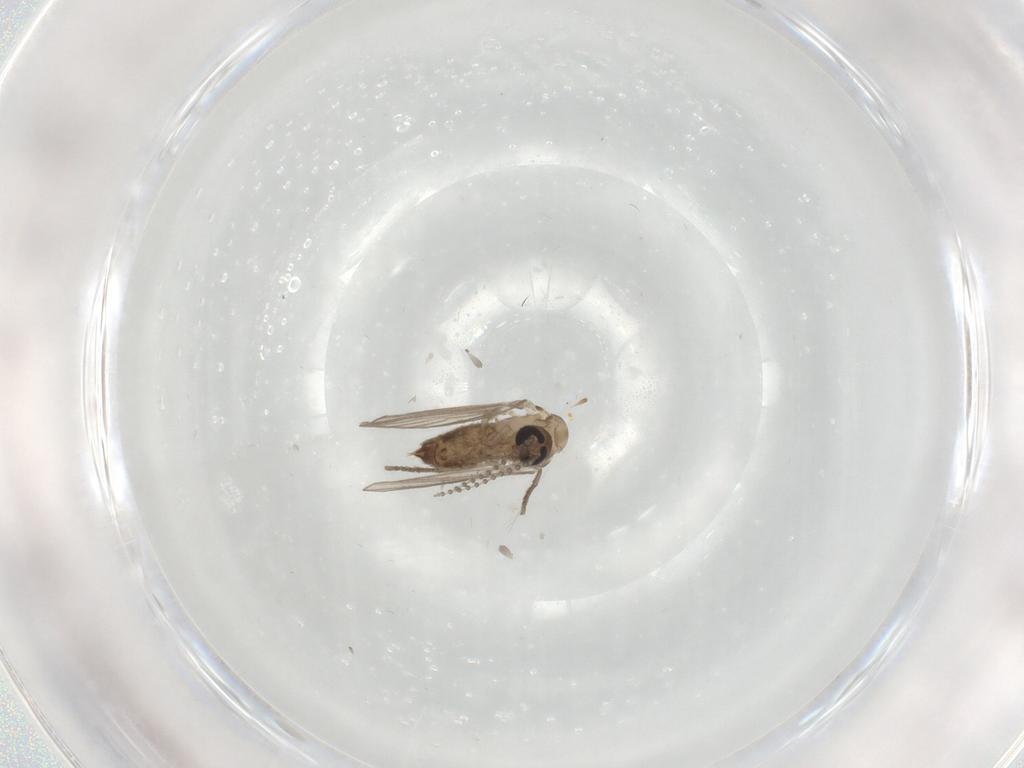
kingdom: Animalia
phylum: Arthropoda
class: Insecta
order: Diptera
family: Psychodidae
